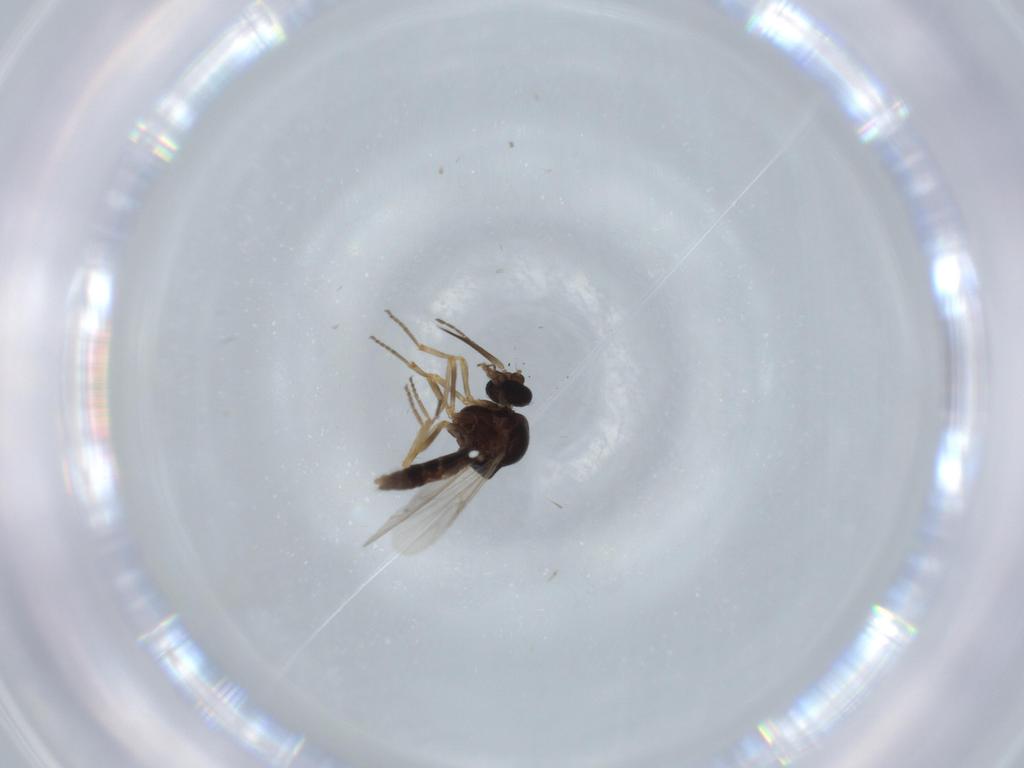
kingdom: Animalia
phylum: Arthropoda
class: Insecta
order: Diptera
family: Ceratopogonidae
